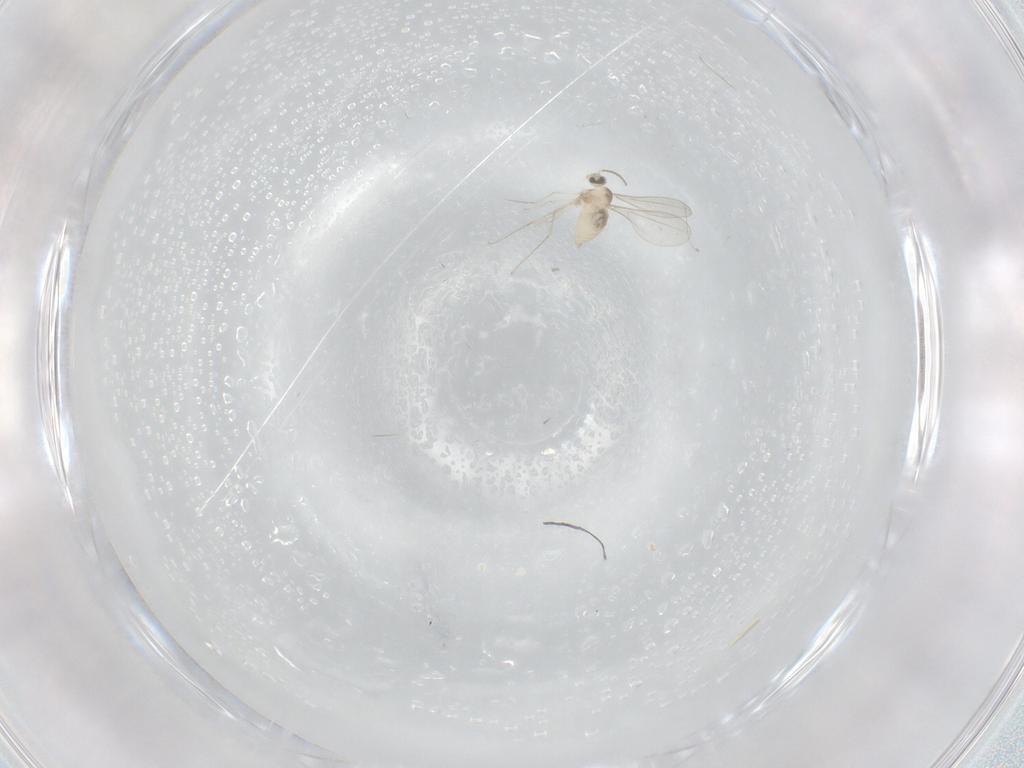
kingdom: Animalia
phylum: Arthropoda
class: Insecta
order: Diptera
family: Cecidomyiidae
